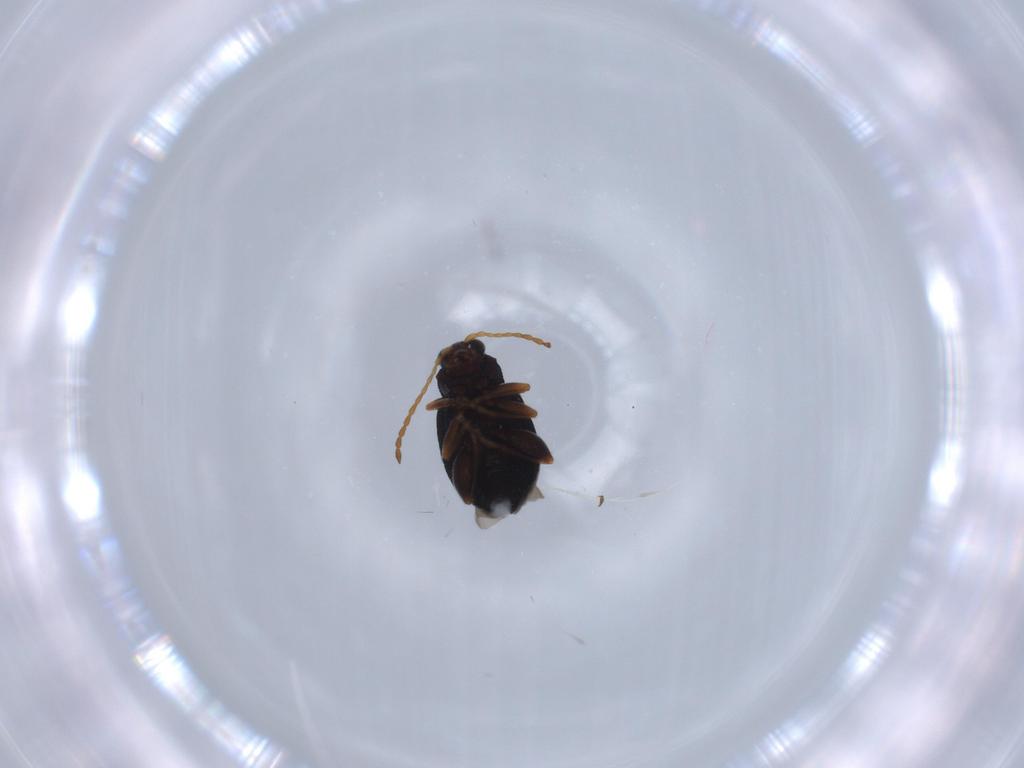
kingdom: Animalia
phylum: Arthropoda
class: Insecta
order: Coleoptera
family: Chrysomelidae
